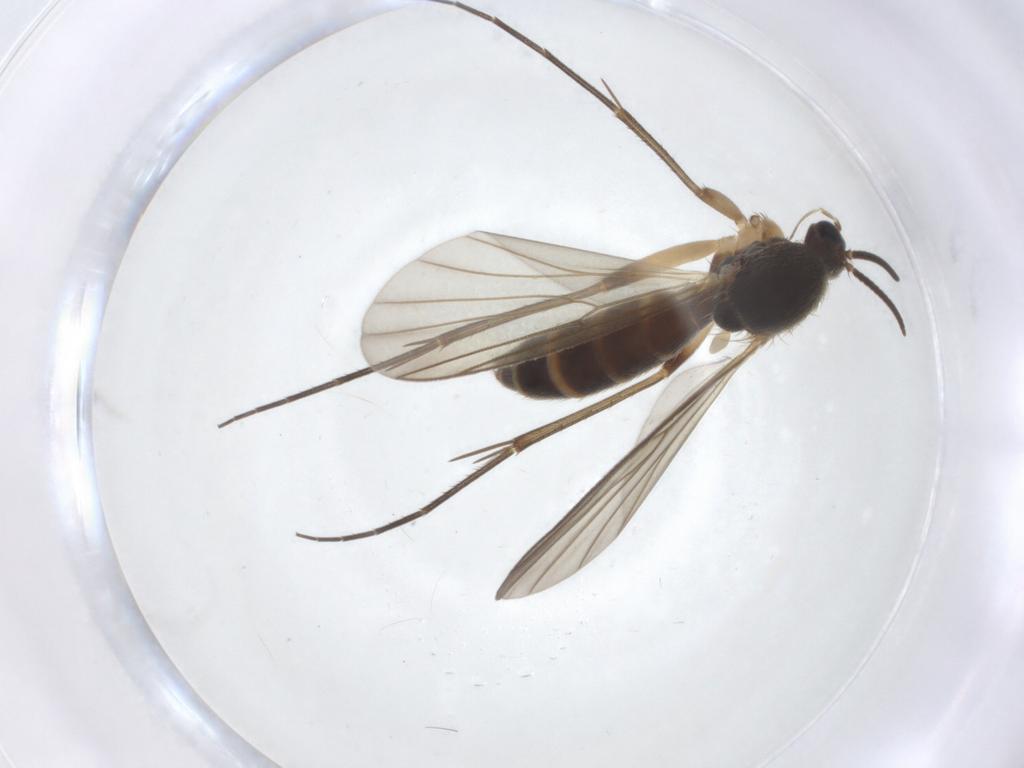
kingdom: Animalia
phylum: Arthropoda
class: Insecta
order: Diptera
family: Mycetophilidae
